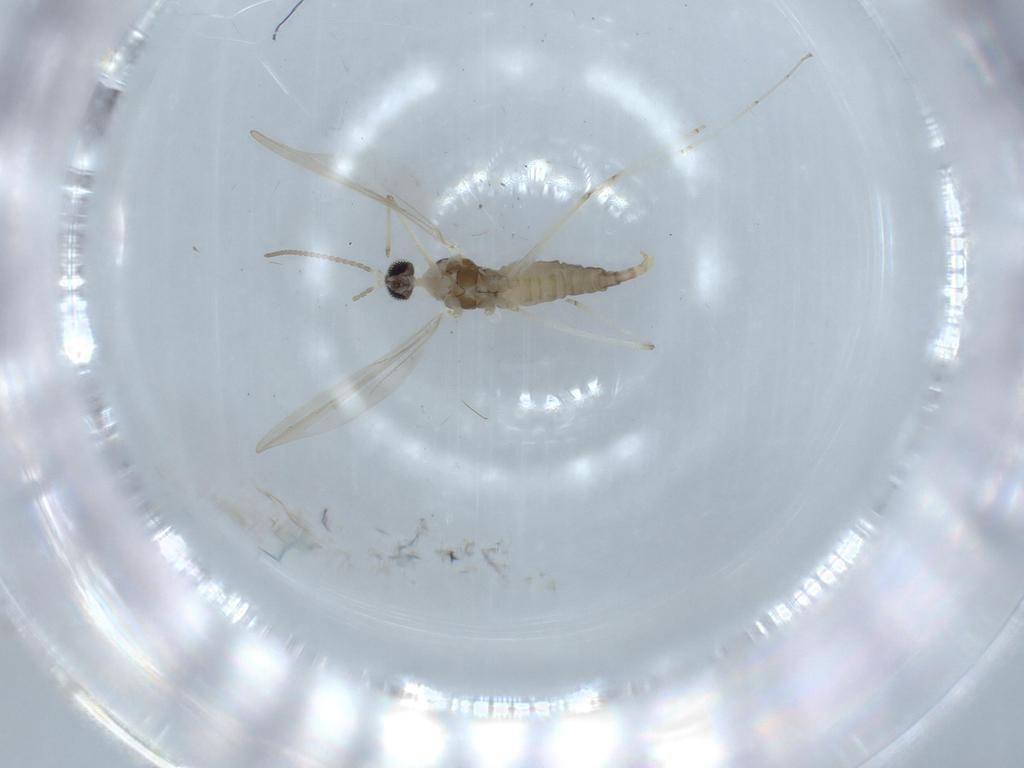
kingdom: Animalia
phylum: Arthropoda
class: Insecta
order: Diptera
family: Cecidomyiidae
